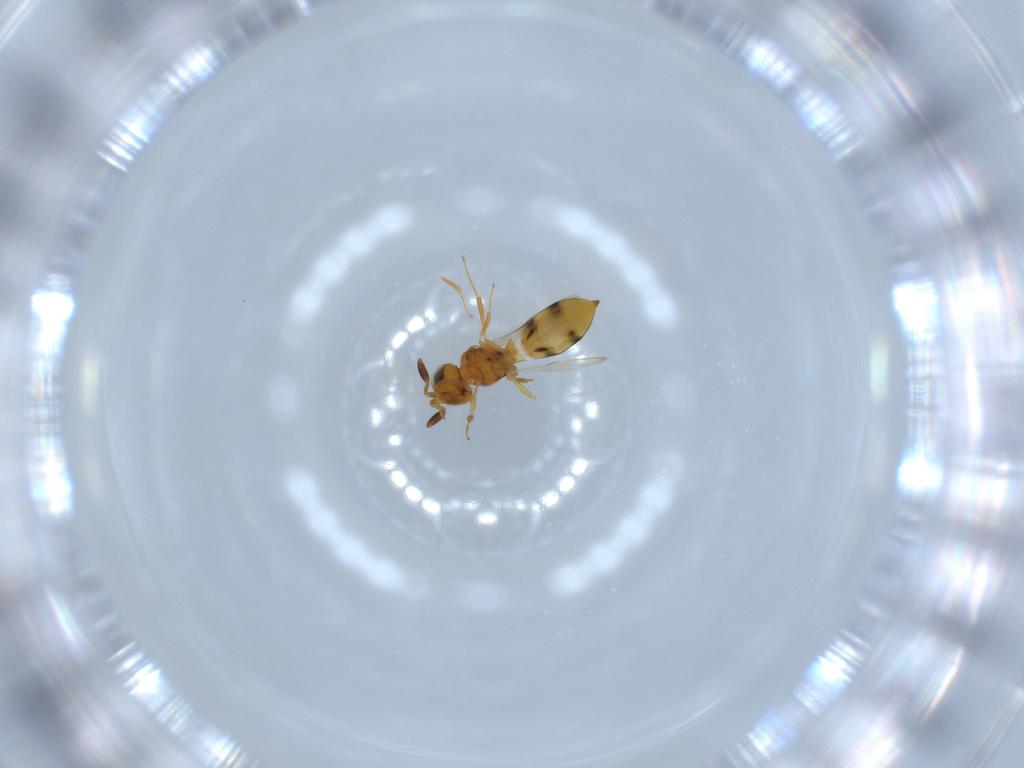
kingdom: Animalia
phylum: Arthropoda
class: Insecta
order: Hymenoptera
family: Scelionidae
